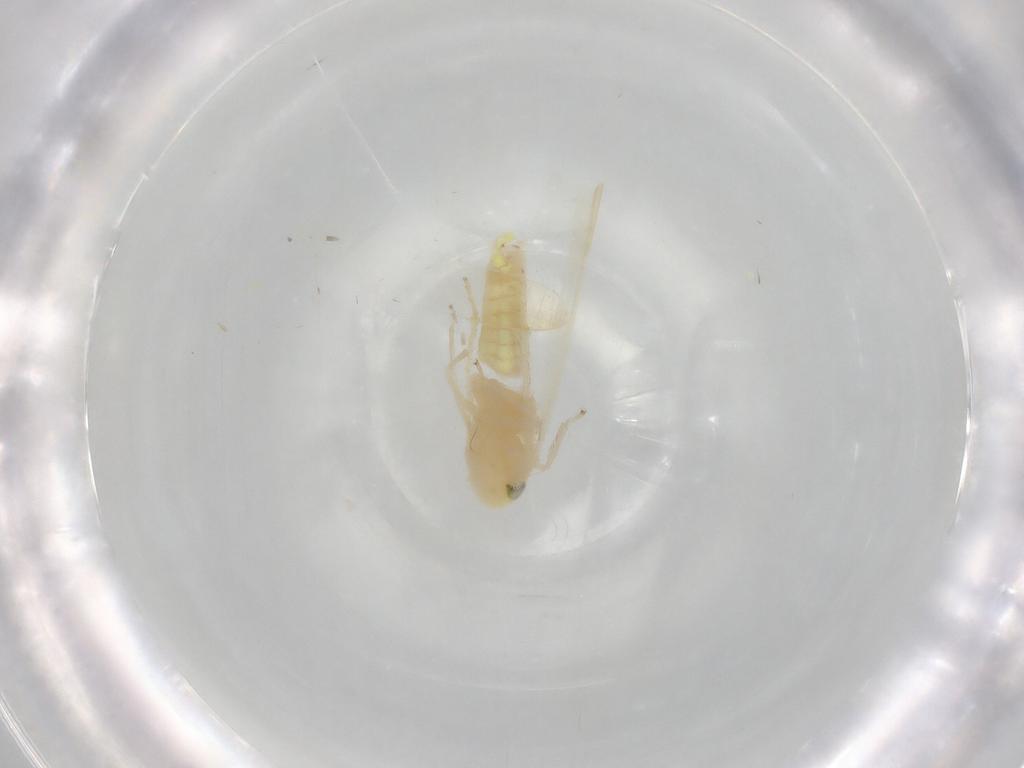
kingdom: Animalia
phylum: Arthropoda
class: Insecta
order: Hemiptera
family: Cicadellidae
